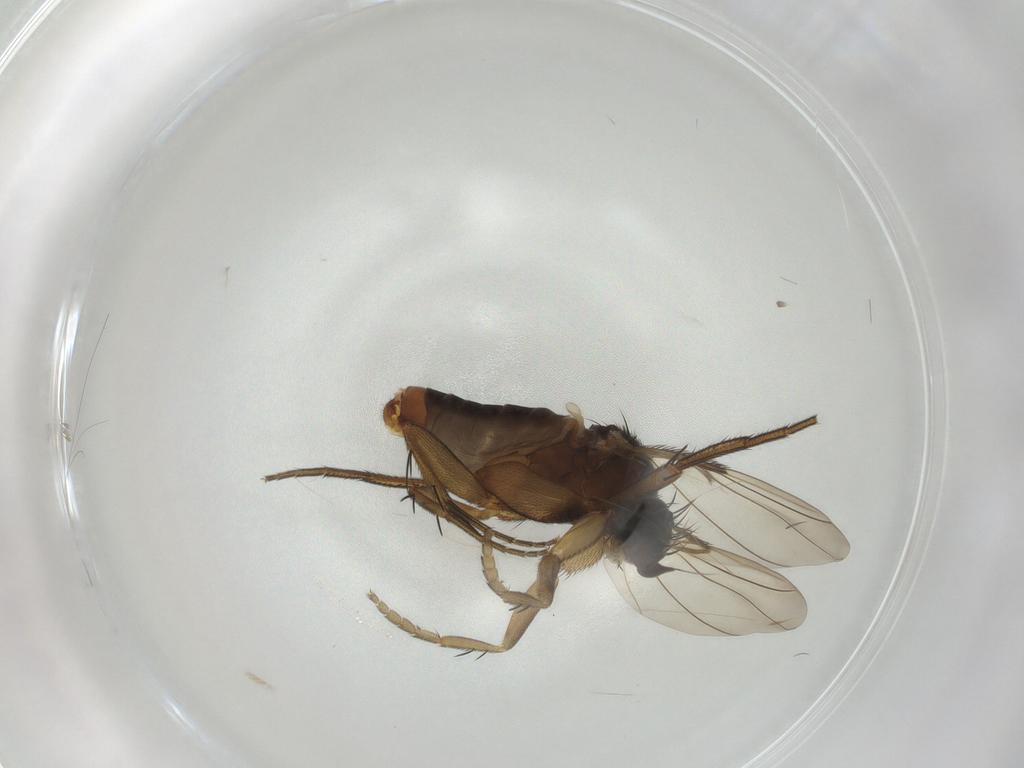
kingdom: Animalia
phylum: Arthropoda
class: Insecta
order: Diptera
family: Phoridae
